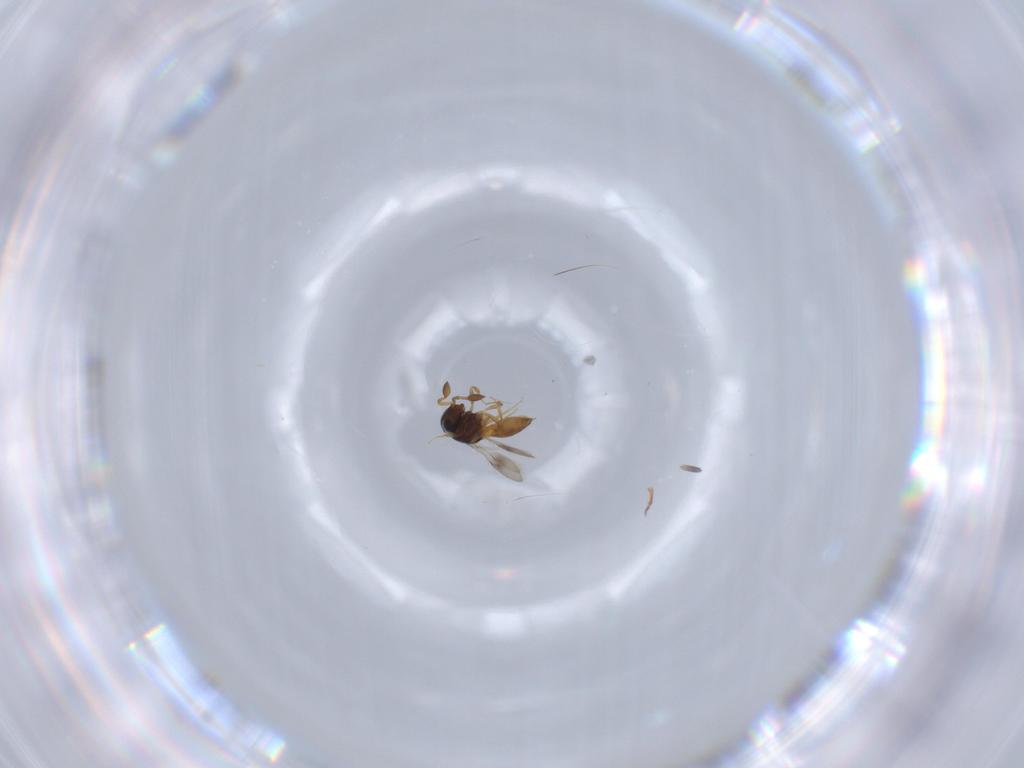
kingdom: Animalia
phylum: Arthropoda
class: Insecta
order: Hymenoptera
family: Scelionidae
